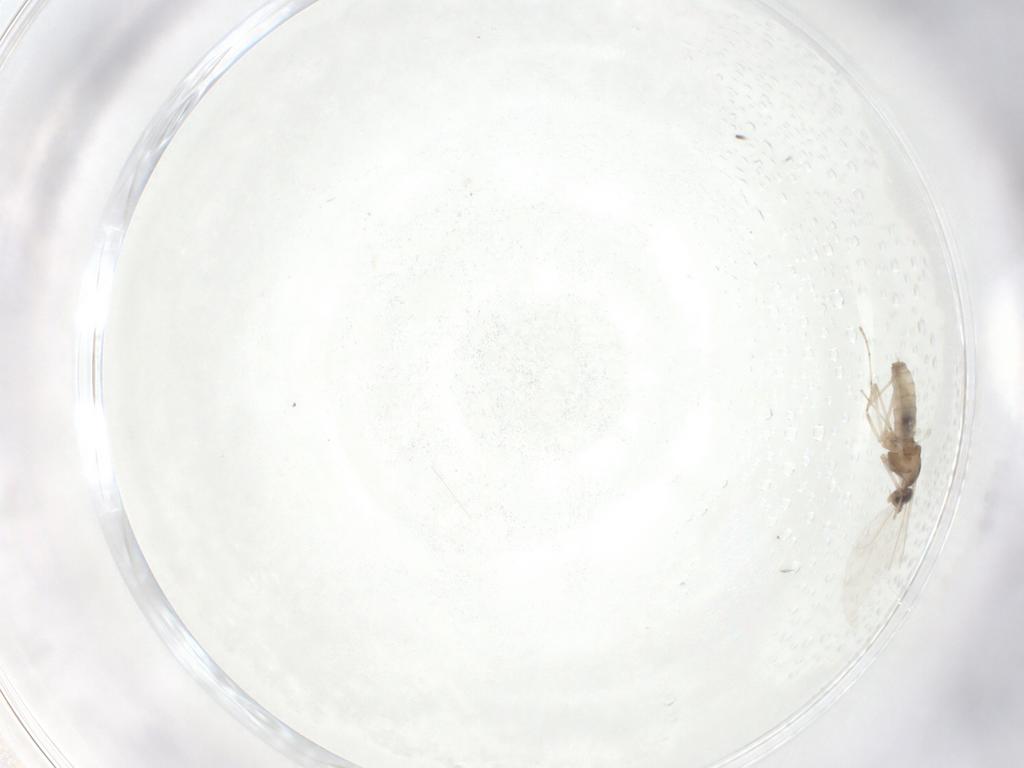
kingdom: Animalia
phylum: Arthropoda
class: Insecta
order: Diptera
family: Cecidomyiidae
